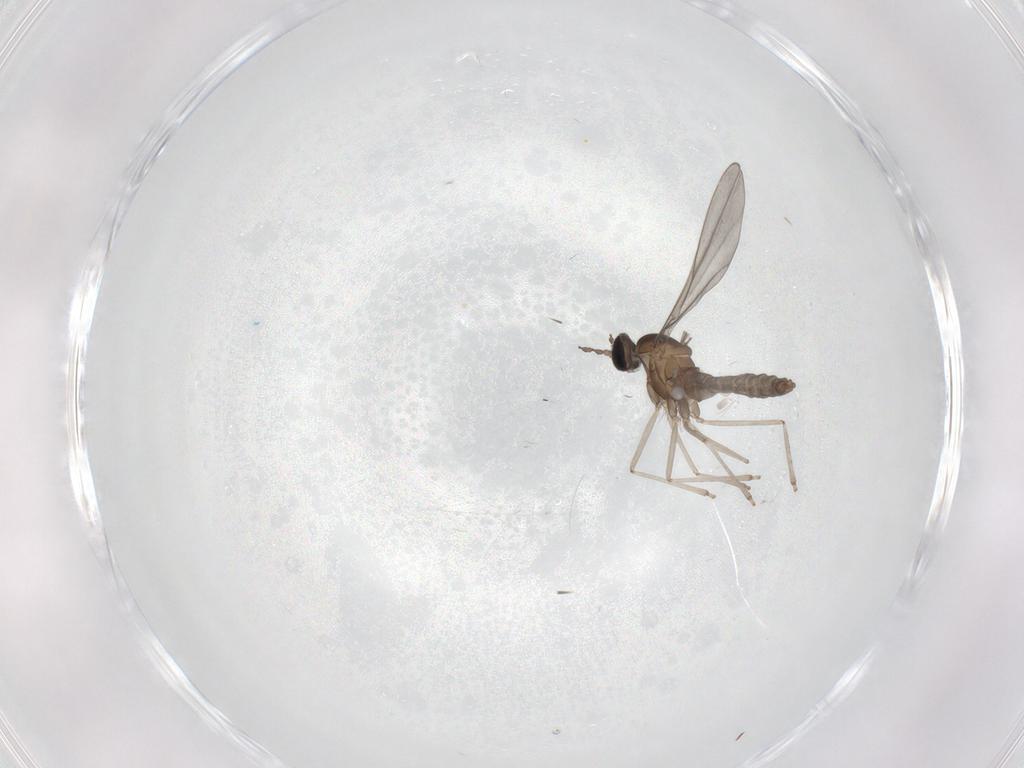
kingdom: Animalia
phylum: Arthropoda
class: Insecta
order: Diptera
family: Cecidomyiidae
